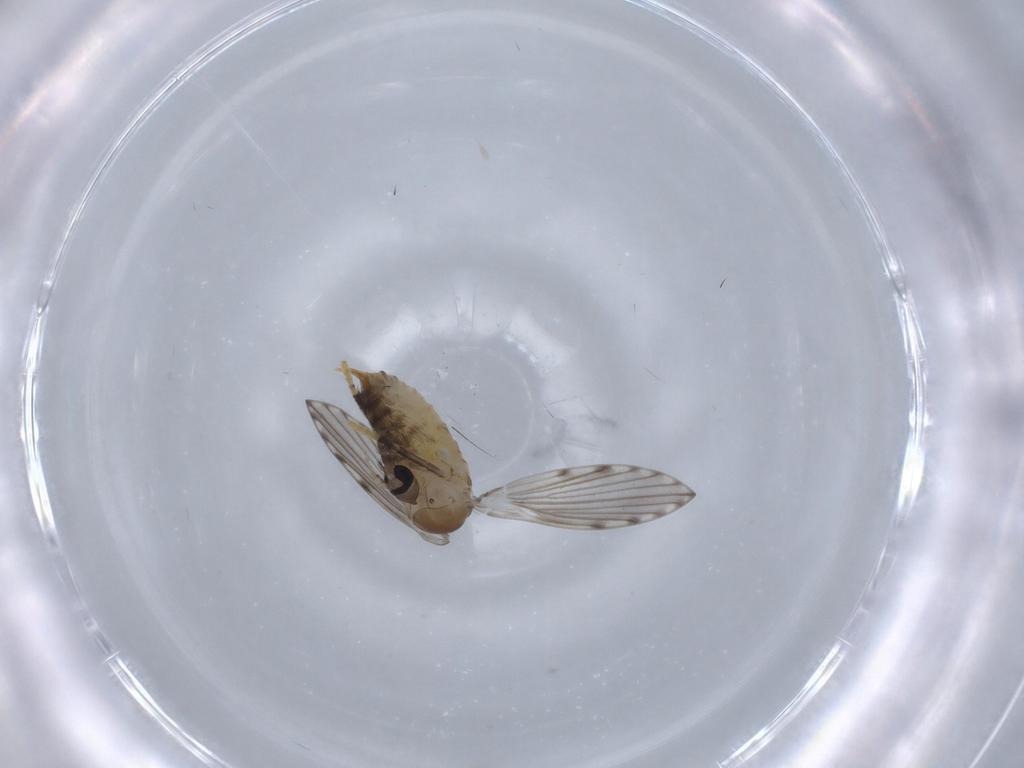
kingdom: Animalia
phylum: Arthropoda
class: Insecta
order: Diptera
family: Psychodidae
